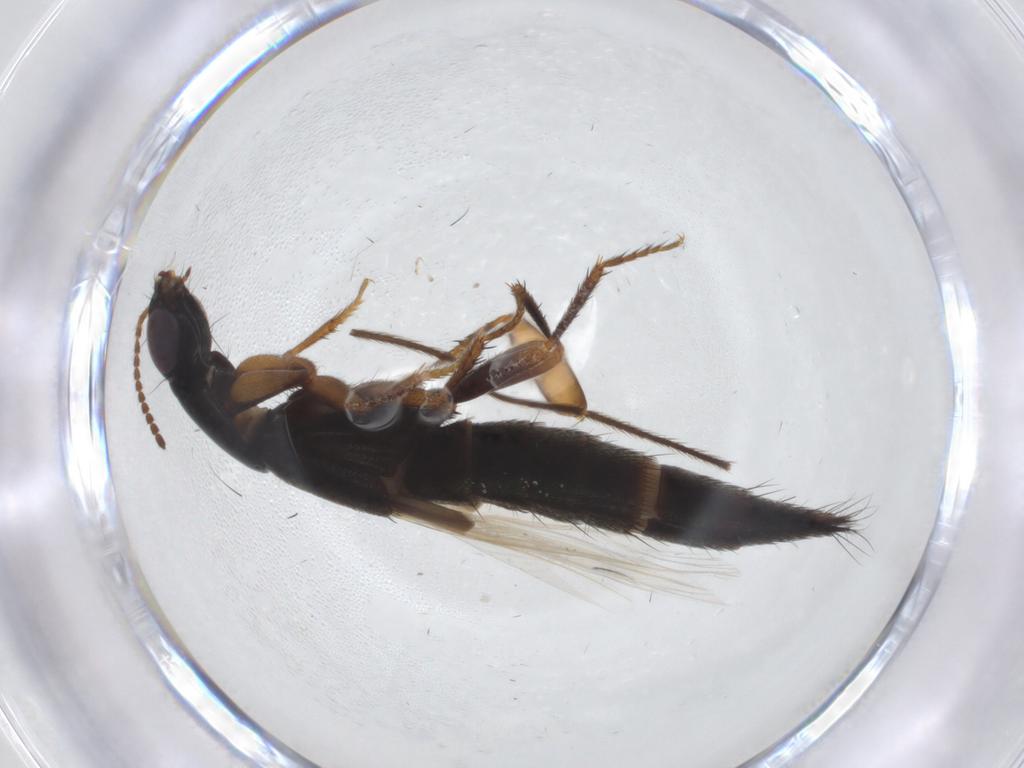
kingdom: Animalia
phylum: Arthropoda
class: Insecta
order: Coleoptera
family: Staphylinidae
